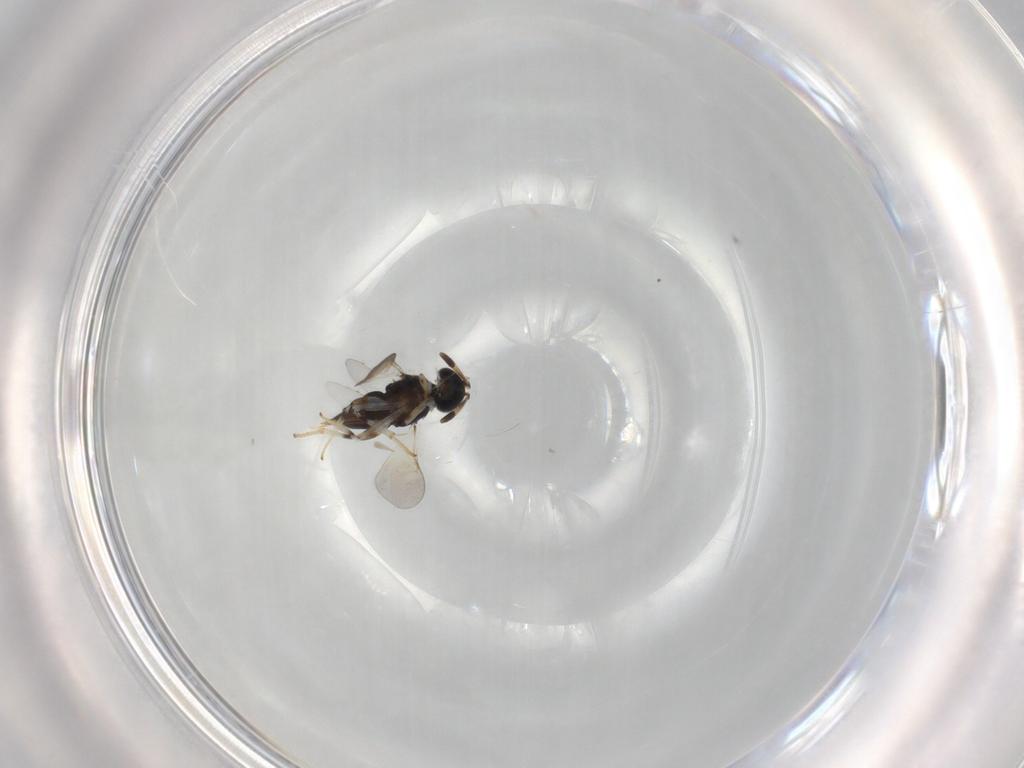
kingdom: Animalia
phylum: Arthropoda
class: Insecta
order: Hymenoptera
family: Encyrtidae
